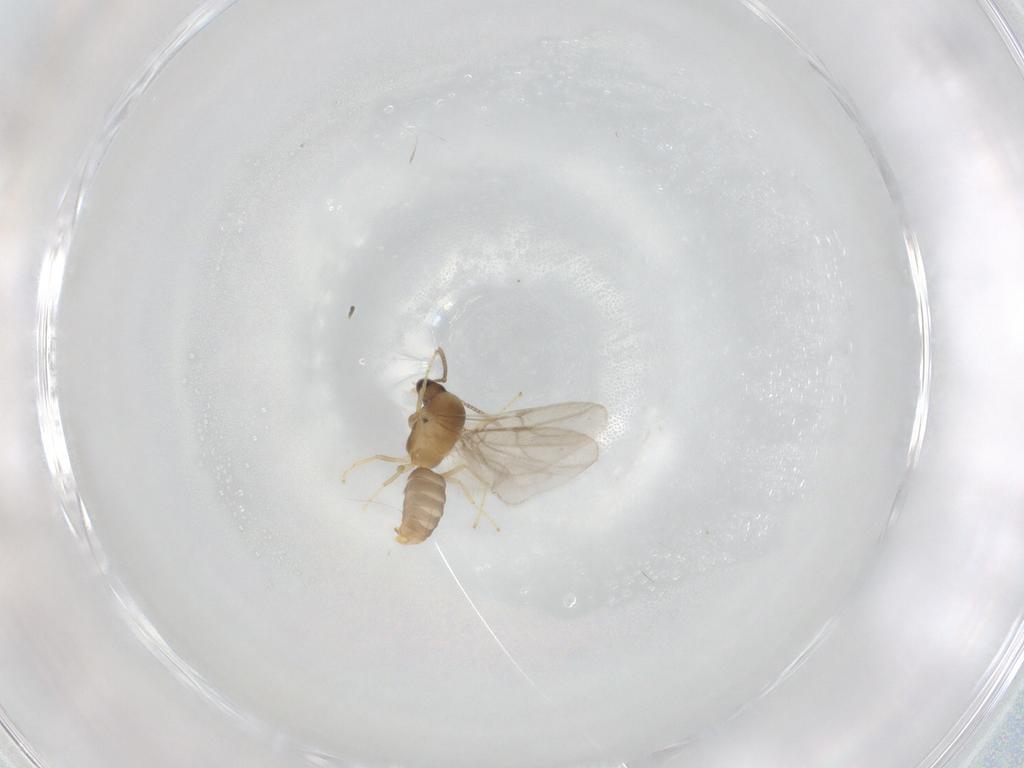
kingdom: Animalia
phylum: Arthropoda
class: Insecta
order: Hymenoptera
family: Formicidae
